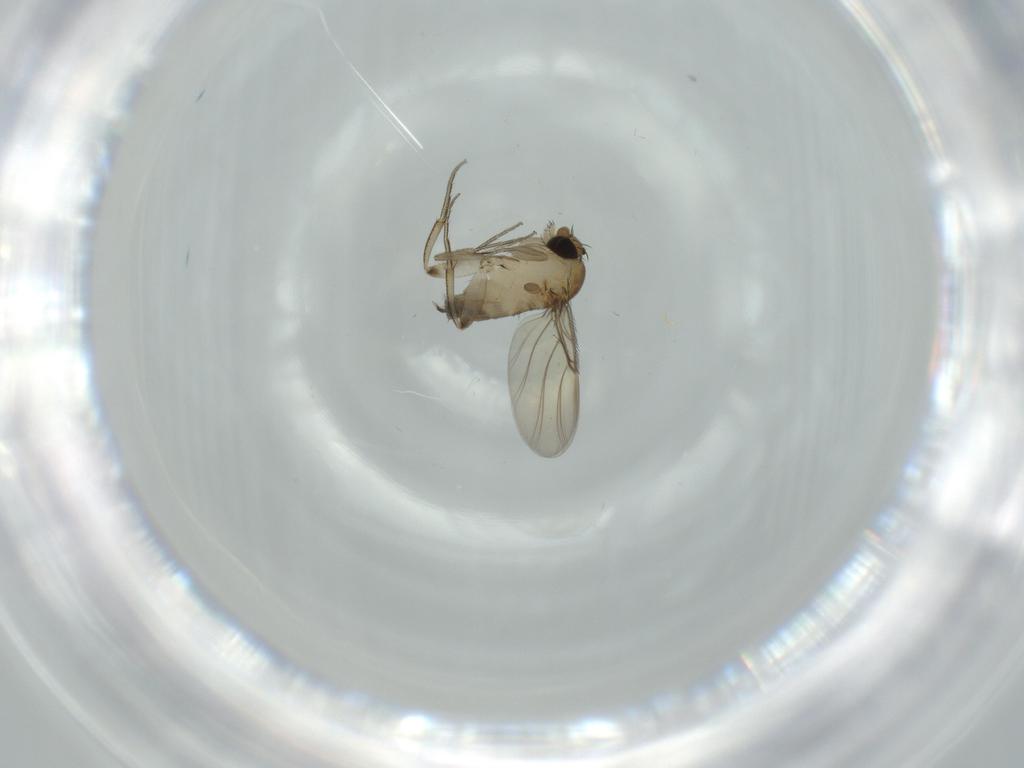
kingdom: Animalia
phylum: Arthropoda
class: Insecta
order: Diptera
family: Phoridae
